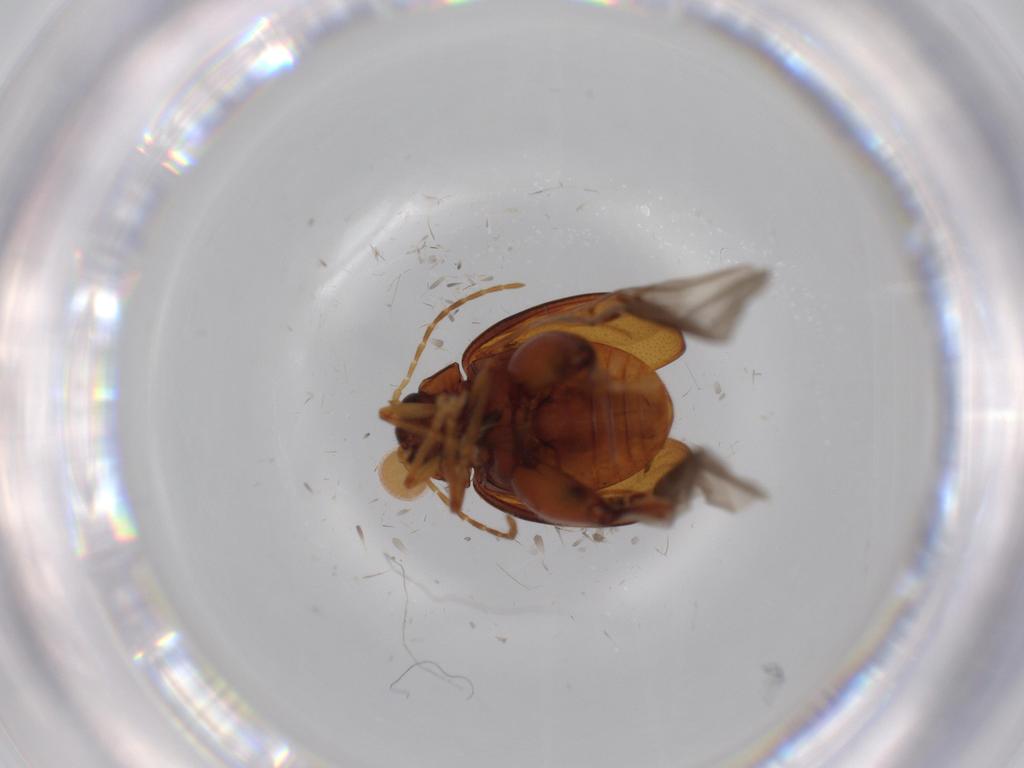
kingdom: Animalia
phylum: Arthropoda
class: Insecta
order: Coleoptera
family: Chrysomelidae
